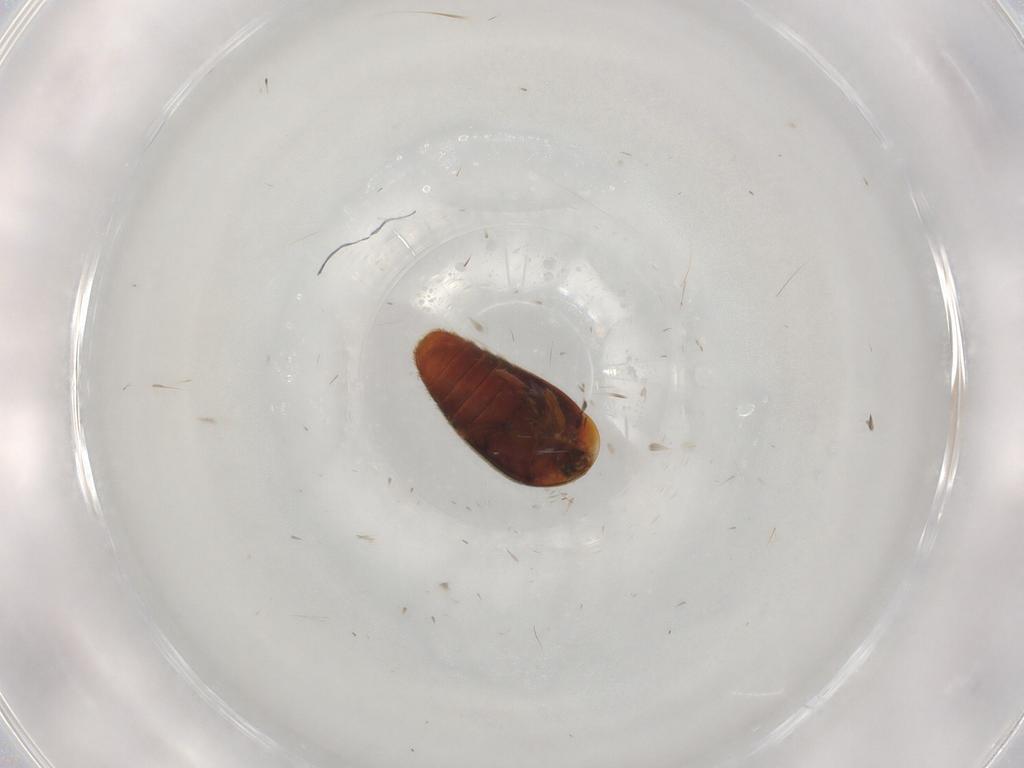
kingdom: Animalia
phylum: Arthropoda
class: Insecta
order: Coleoptera
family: Corylophidae
